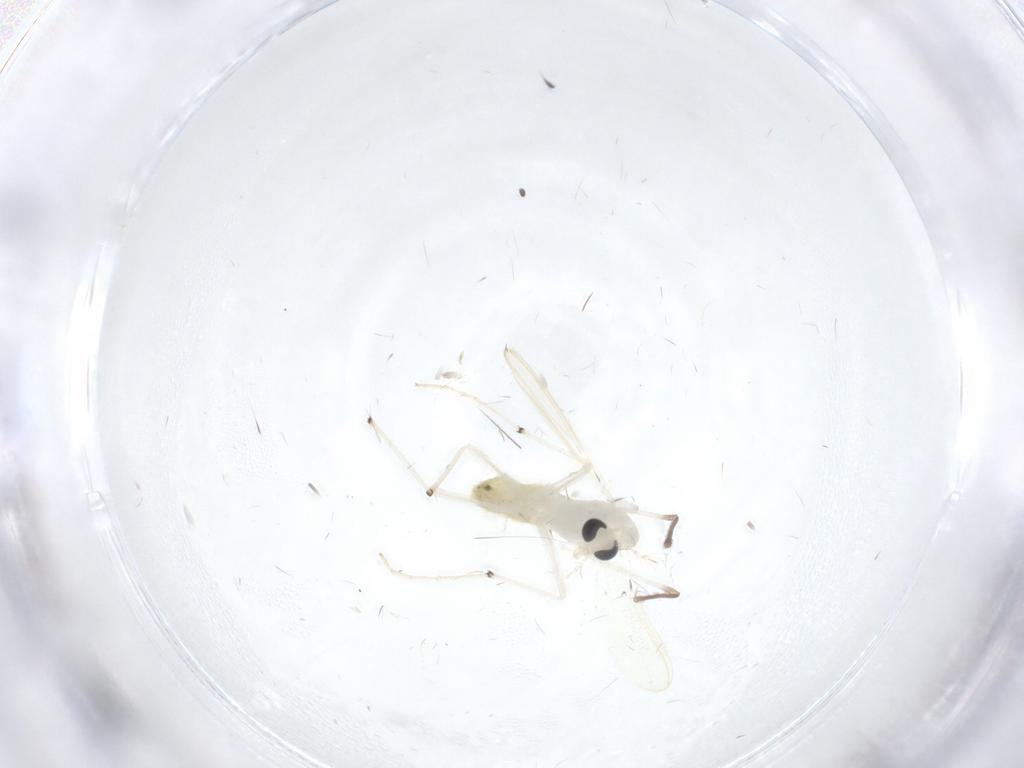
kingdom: Animalia
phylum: Arthropoda
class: Insecta
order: Diptera
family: Chironomidae
